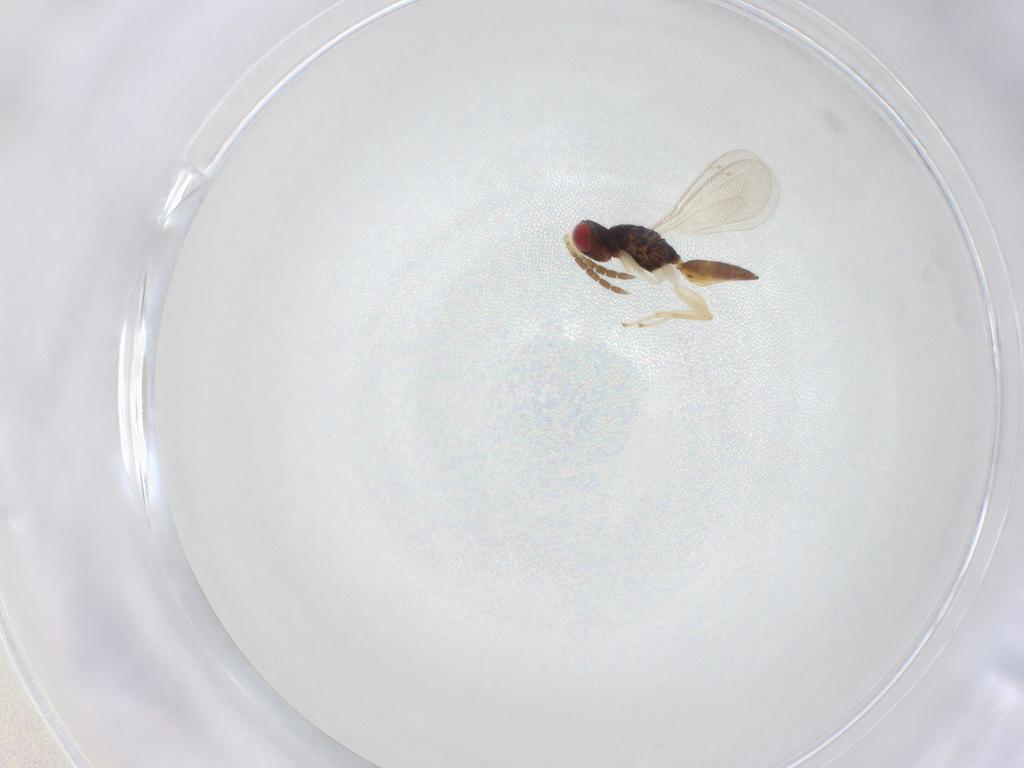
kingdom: Animalia
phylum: Arthropoda
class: Insecta
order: Hymenoptera
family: Eulophidae
